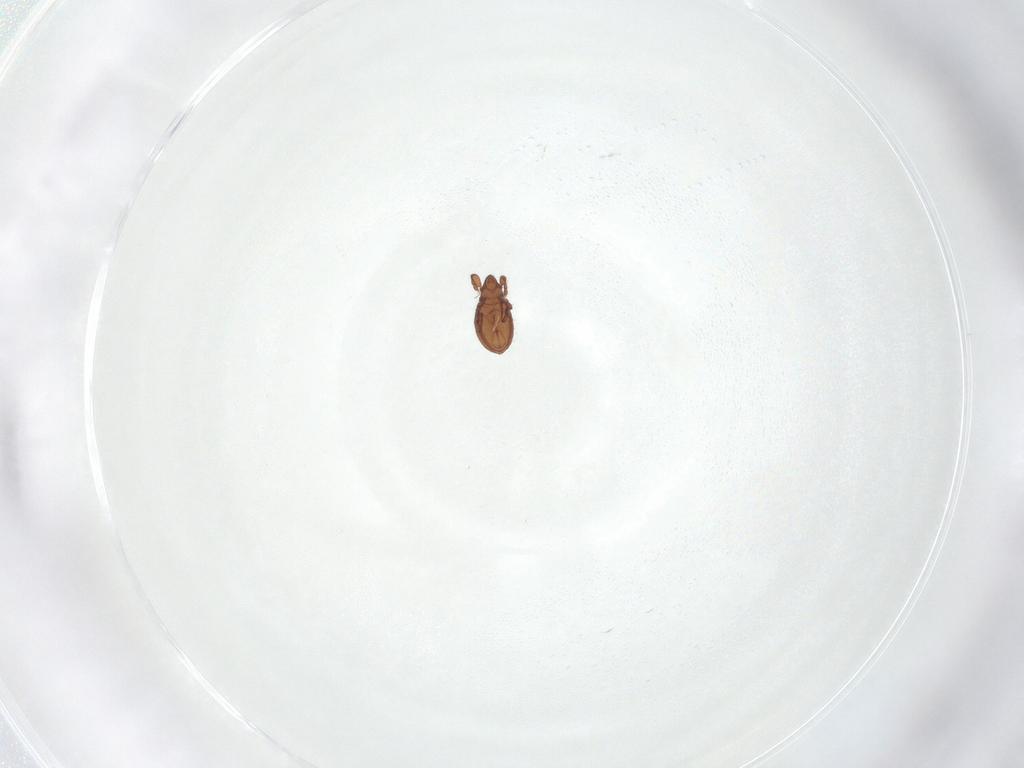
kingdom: Animalia
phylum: Arthropoda
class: Arachnida
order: Sarcoptiformes
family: Eremaeidae
